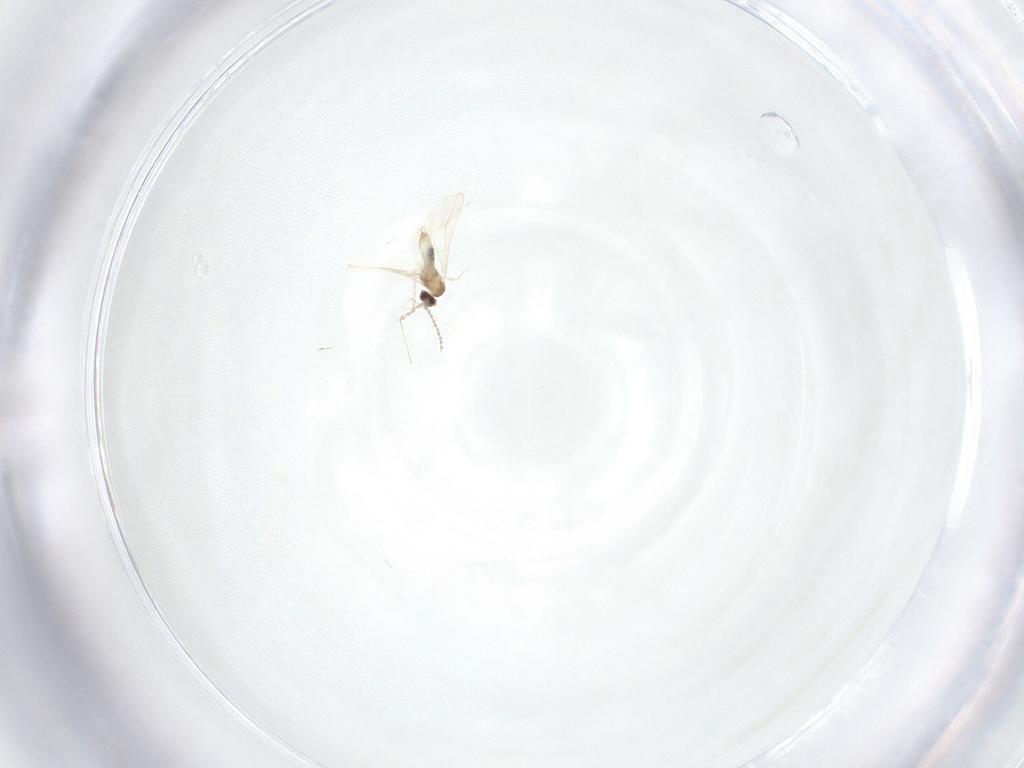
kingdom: Animalia
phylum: Arthropoda
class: Insecta
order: Diptera
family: Cecidomyiidae
